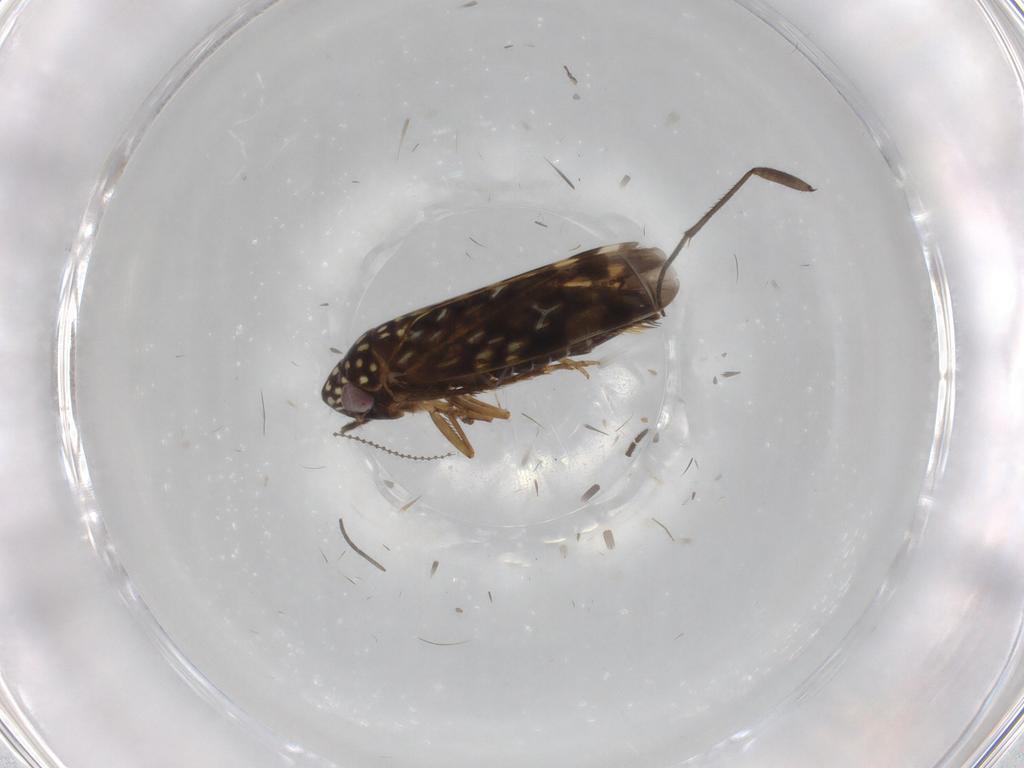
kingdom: Animalia
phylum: Arthropoda
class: Insecta
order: Hemiptera
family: Cicadellidae
